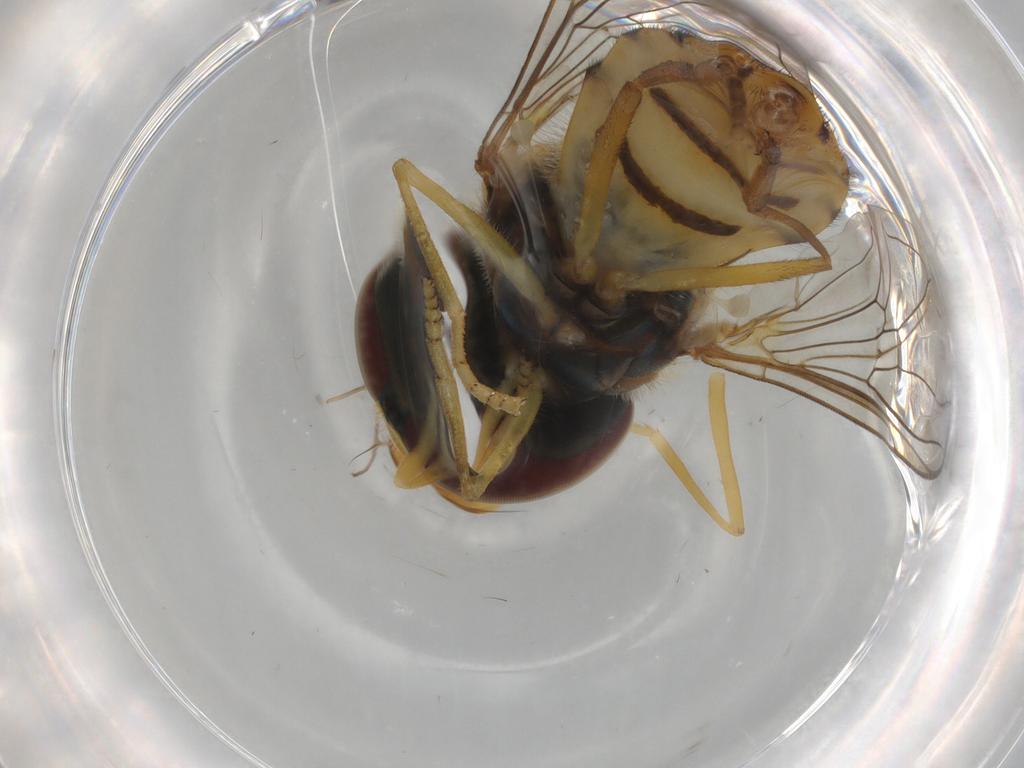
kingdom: Animalia
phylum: Arthropoda
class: Insecta
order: Diptera
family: Syrphidae
